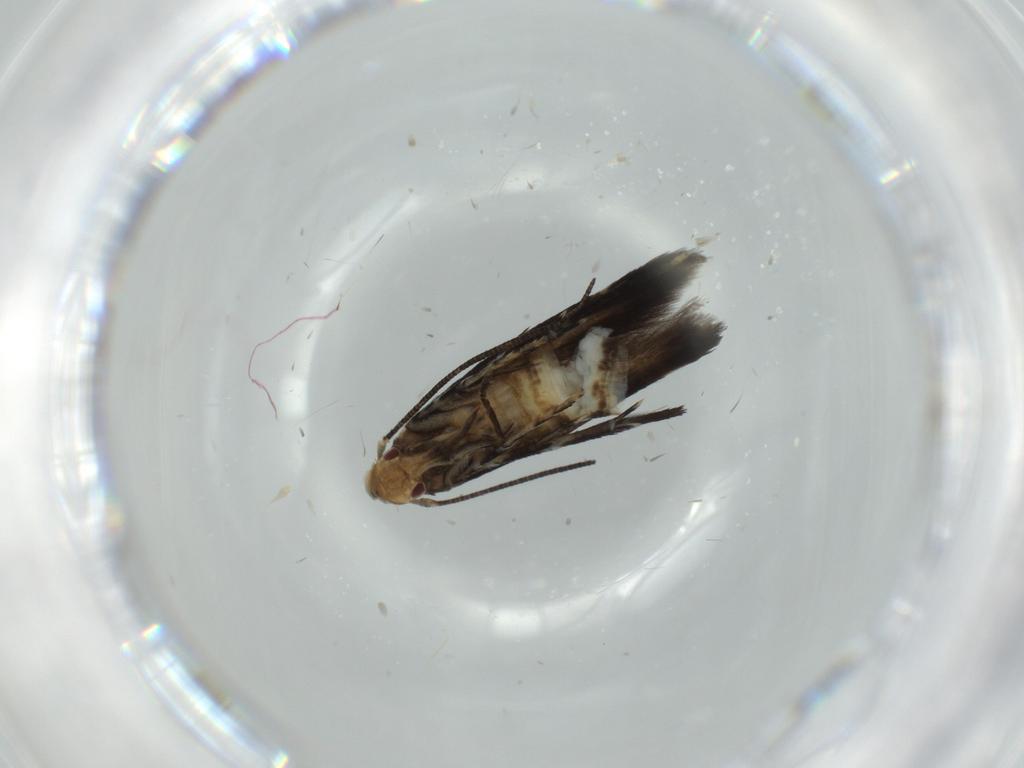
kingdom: Animalia
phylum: Arthropoda
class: Insecta
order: Lepidoptera
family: Momphidae
